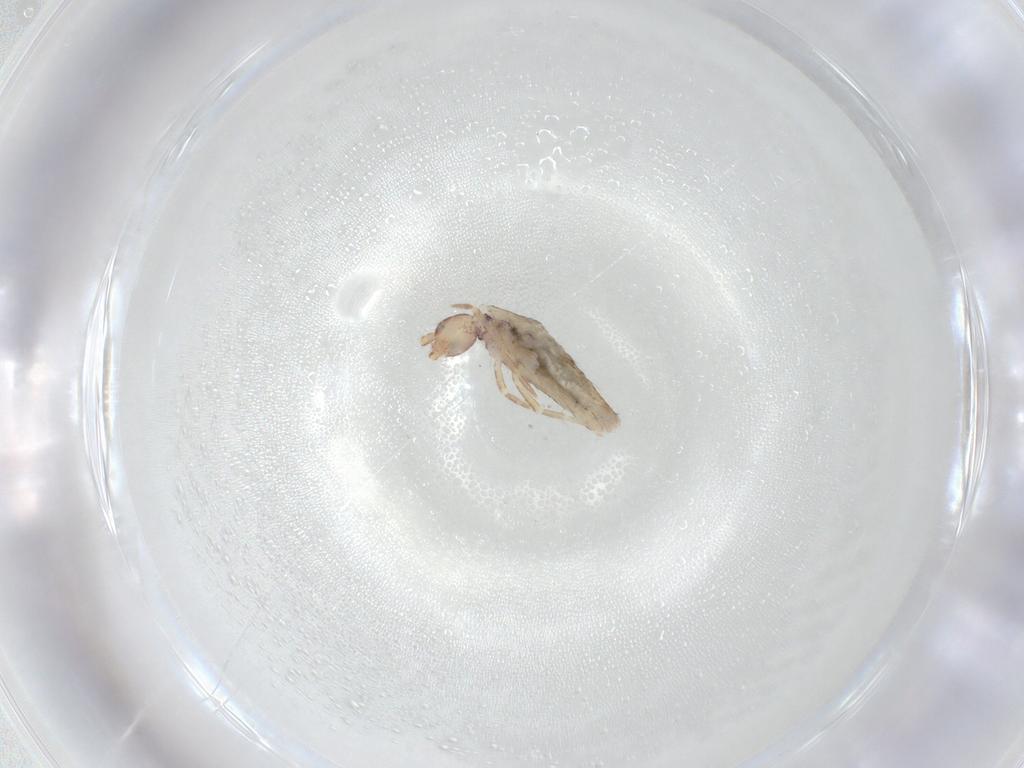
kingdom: Animalia
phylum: Arthropoda
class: Collembola
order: Entomobryomorpha
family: Entomobryidae
